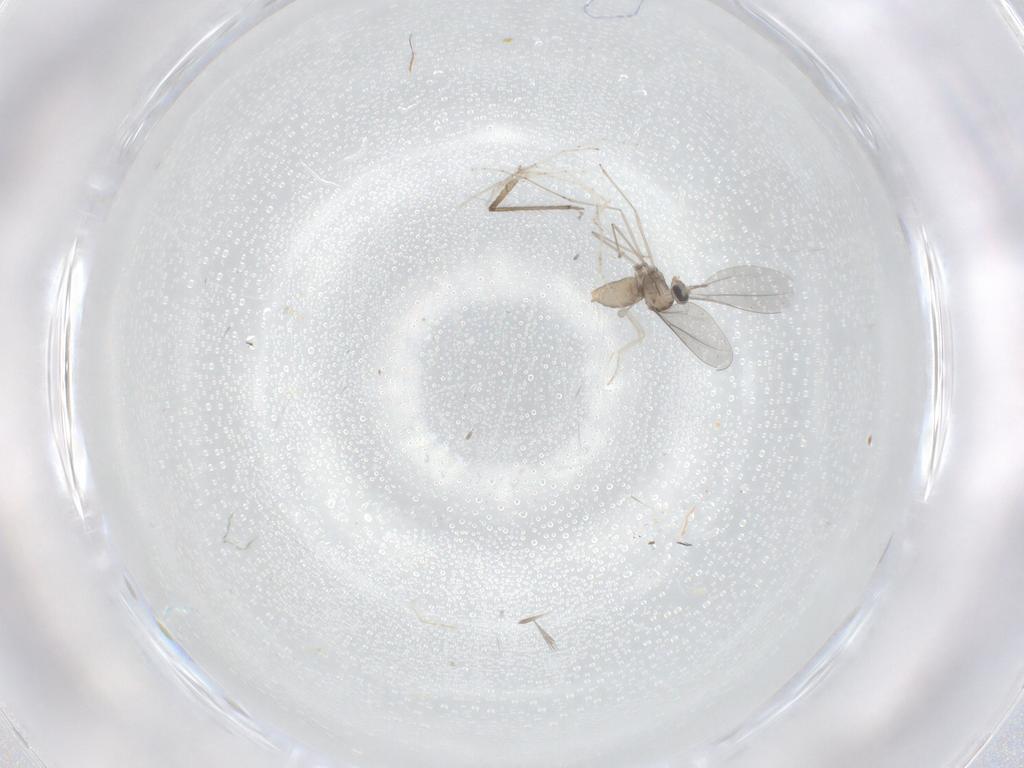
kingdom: Animalia
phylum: Arthropoda
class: Insecta
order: Diptera
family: Cecidomyiidae
